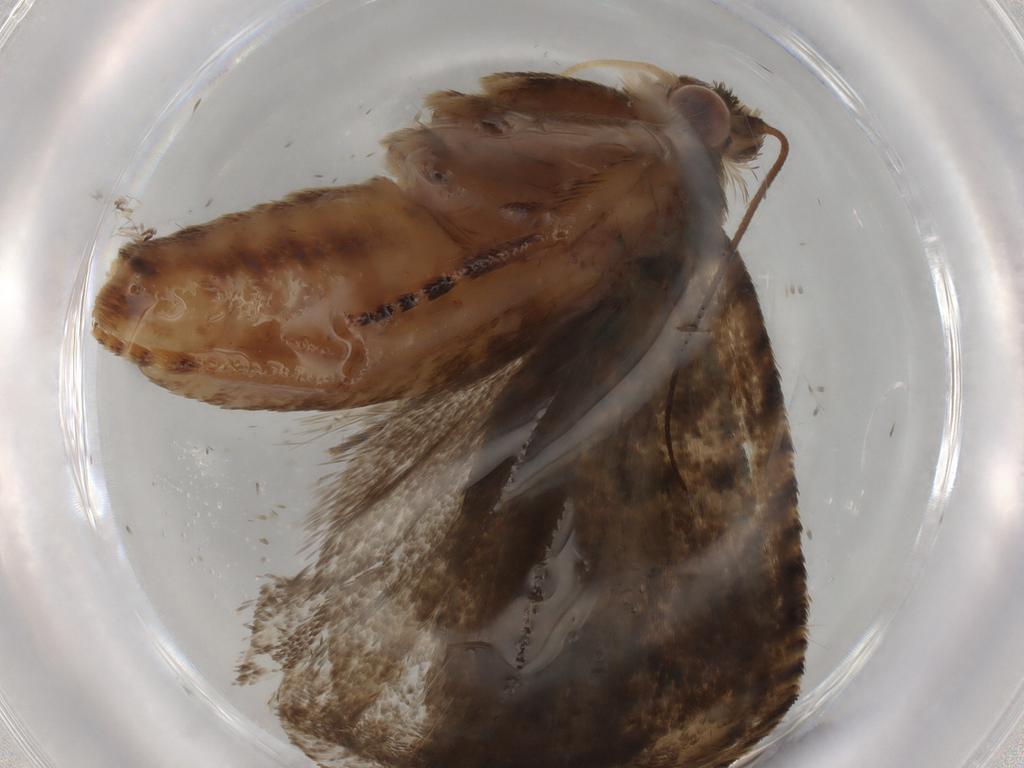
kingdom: Animalia
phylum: Arthropoda
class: Insecta
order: Lepidoptera
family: Tortricidae
